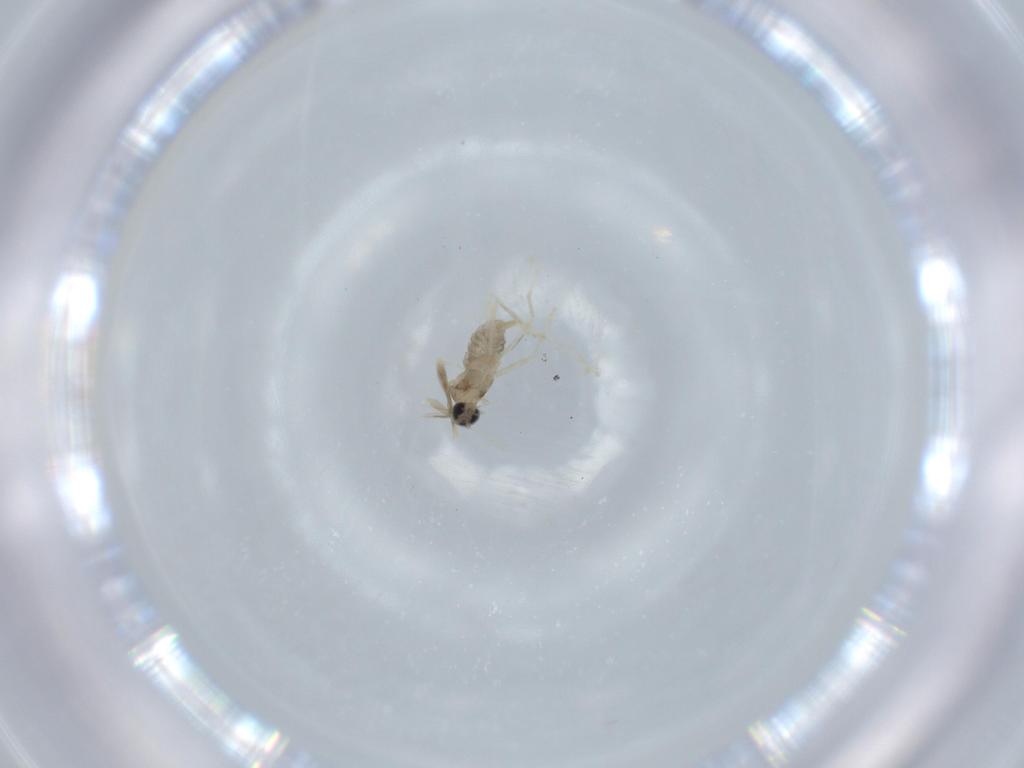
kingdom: Animalia
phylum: Arthropoda
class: Insecta
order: Diptera
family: Cecidomyiidae
